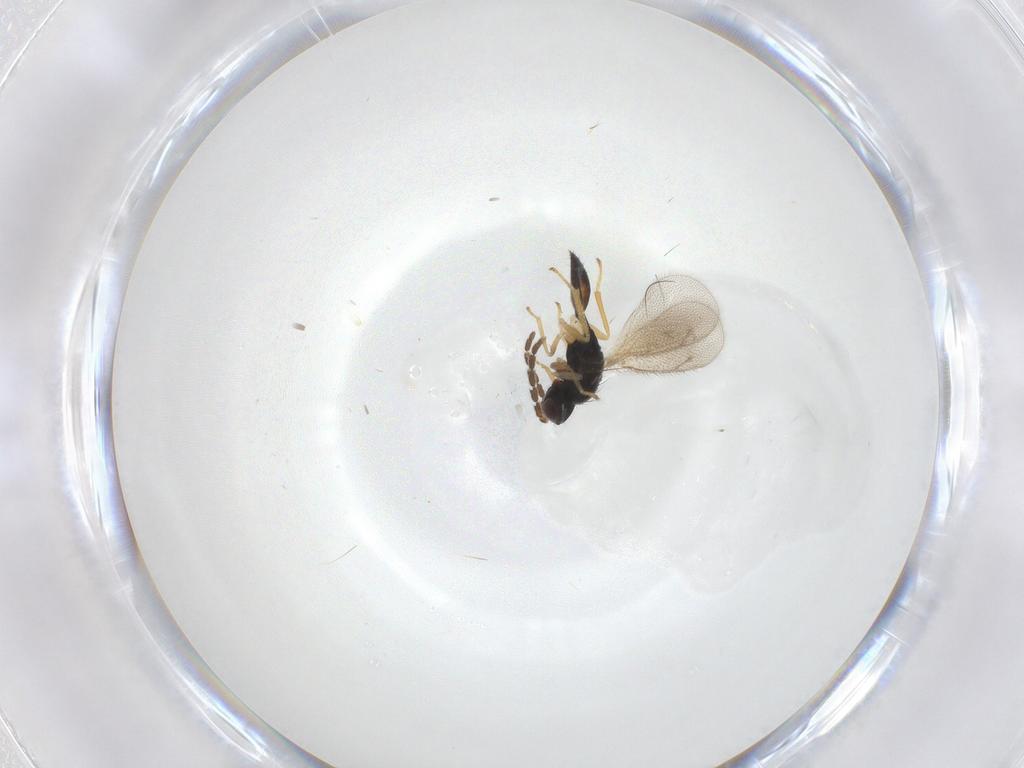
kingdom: Animalia
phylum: Arthropoda
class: Insecta
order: Hymenoptera
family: Eulophidae
